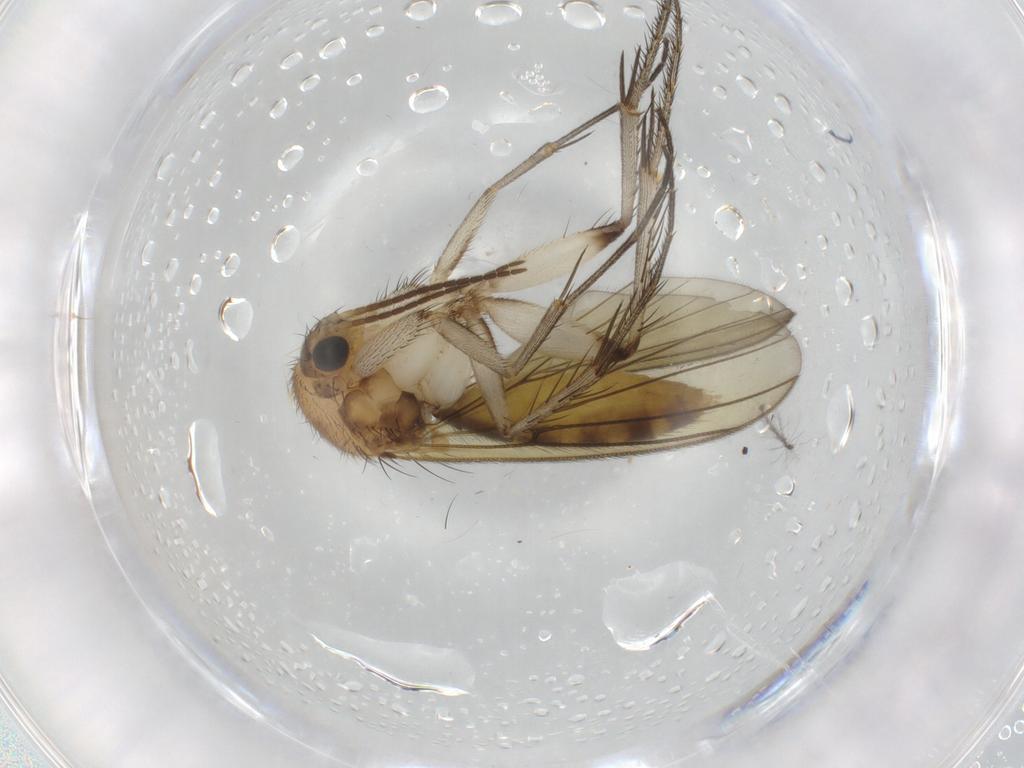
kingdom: Animalia
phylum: Arthropoda
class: Insecta
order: Diptera
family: Mycetophilidae
